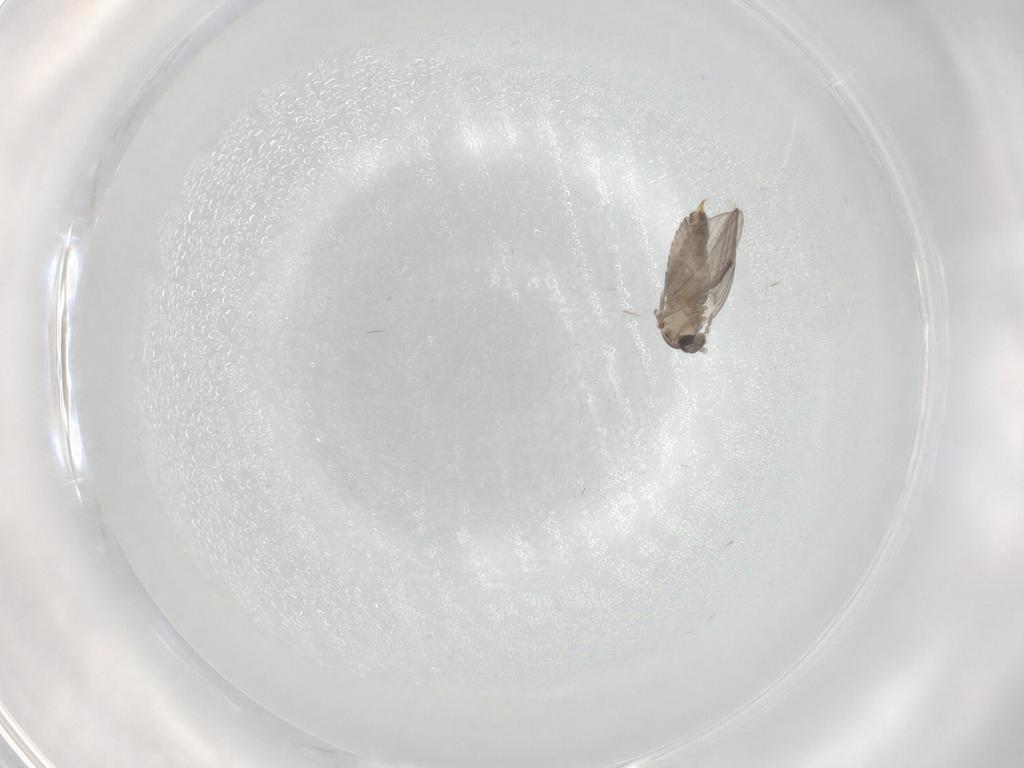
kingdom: Animalia
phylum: Arthropoda
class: Insecta
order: Diptera
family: Psychodidae
